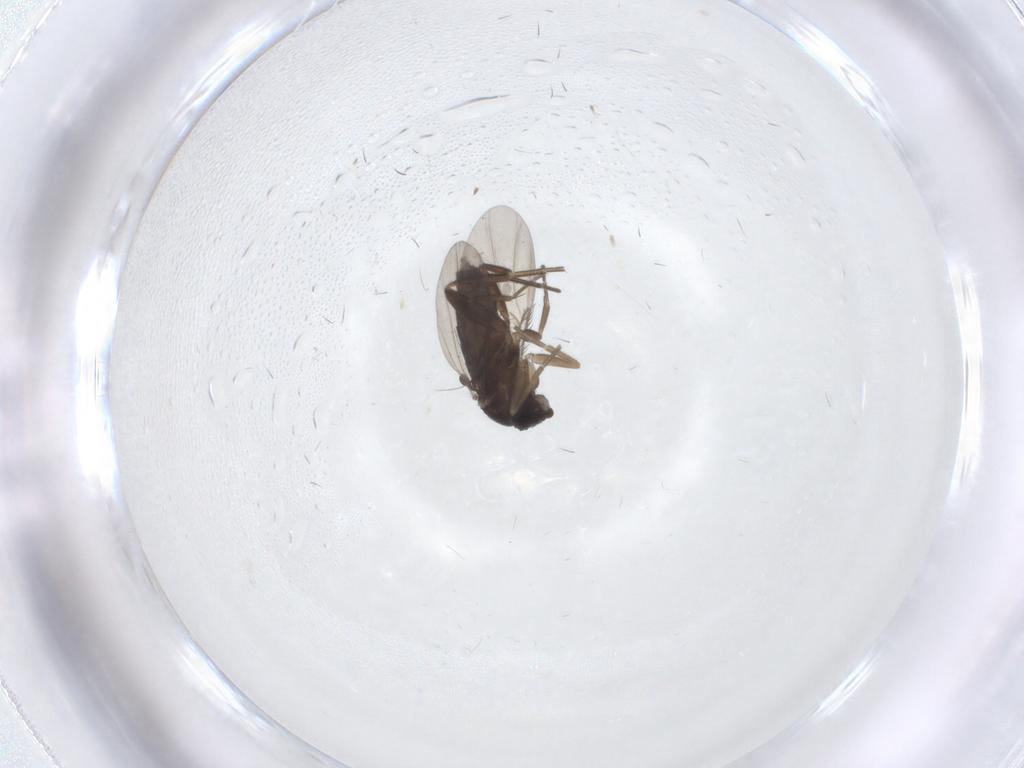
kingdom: Animalia
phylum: Arthropoda
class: Insecta
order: Diptera
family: Phoridae
